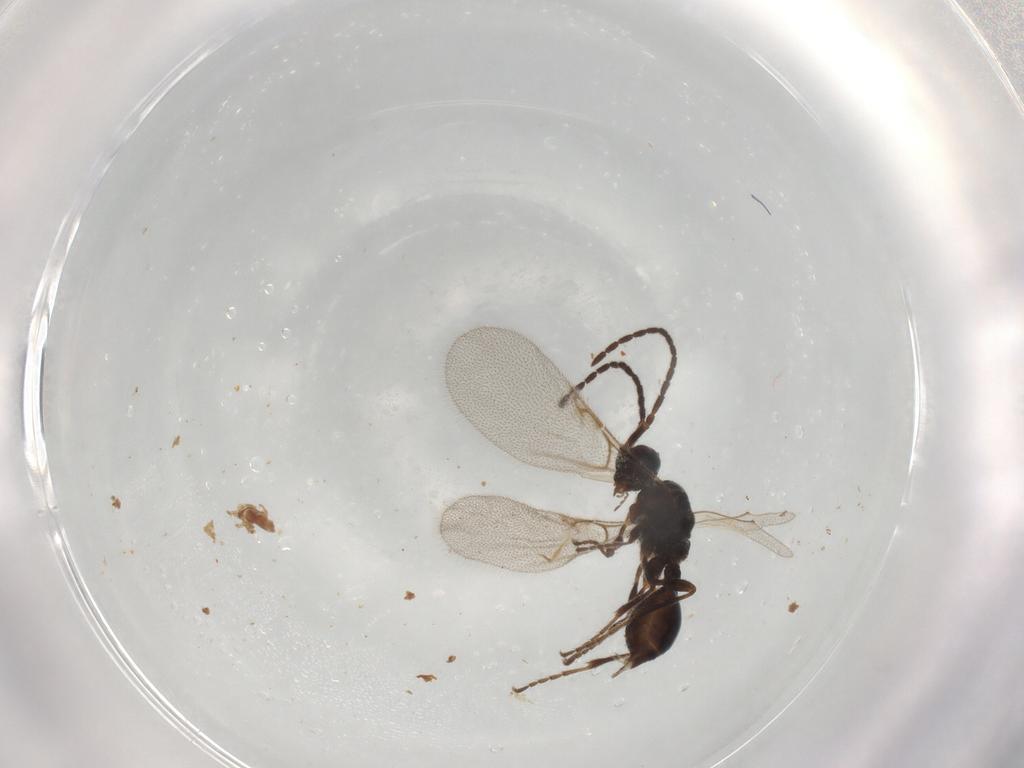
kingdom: Animalia
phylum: Arthropoda
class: Insecta
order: Hymenoptera
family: Diapriidae
